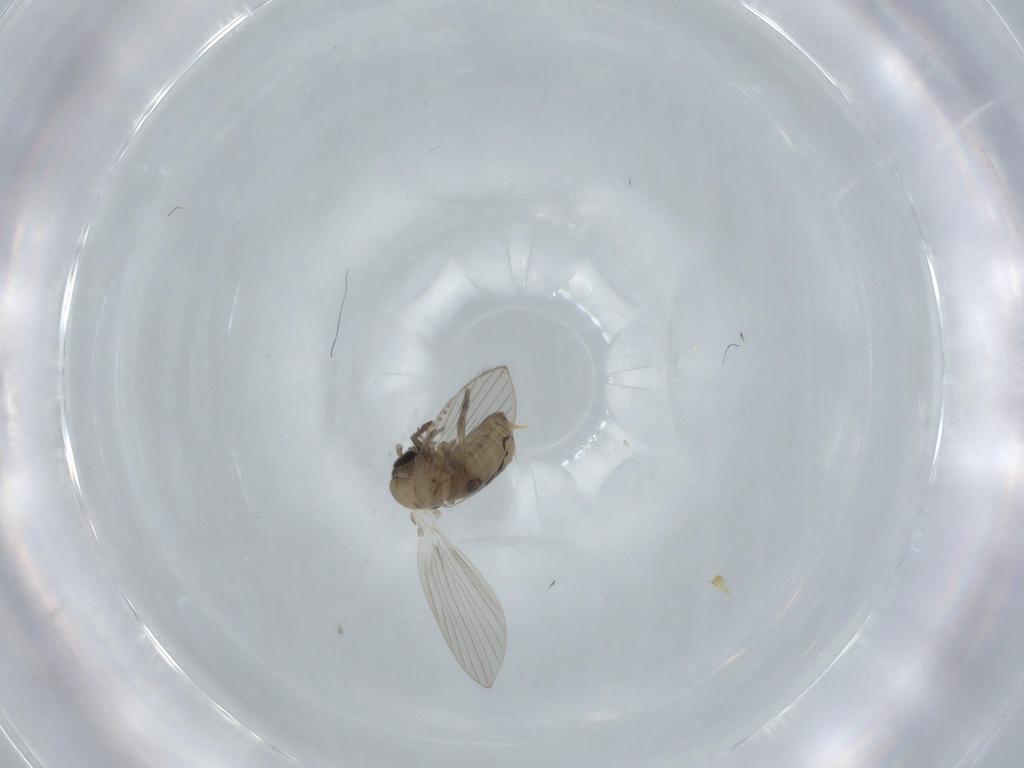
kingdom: Animalia
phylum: Arthropoda
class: Insecta
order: Diptera
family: Psychodidae
